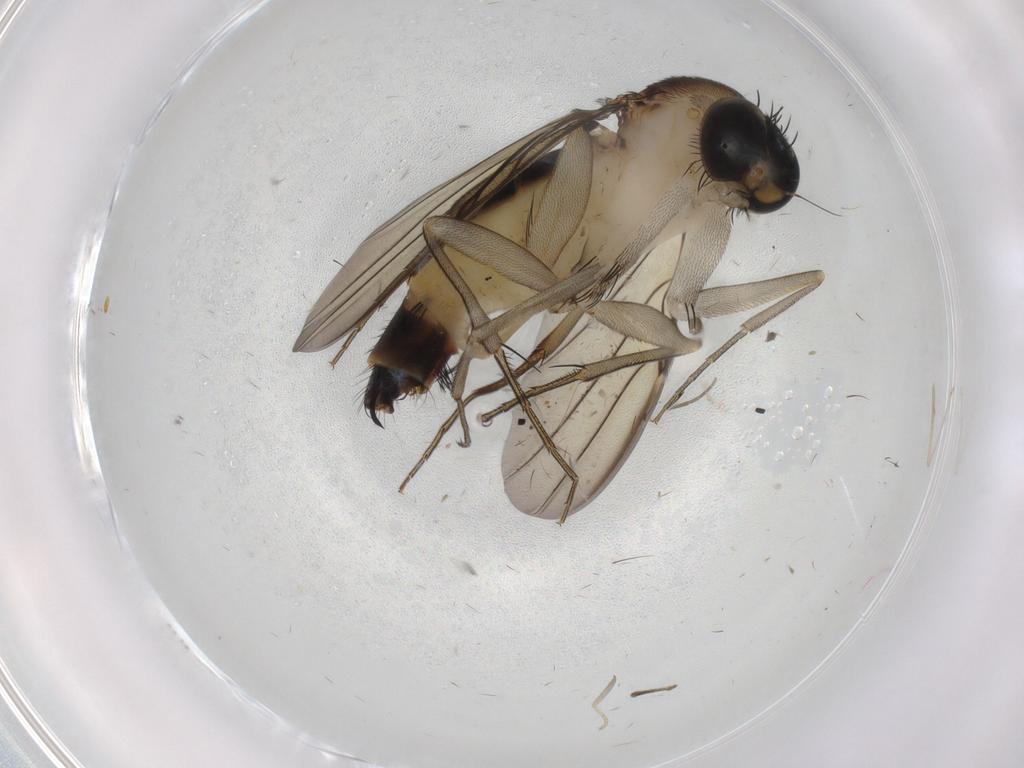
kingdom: Animalia
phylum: Arthropoda
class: Insecta
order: Diptera
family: Phoridae
